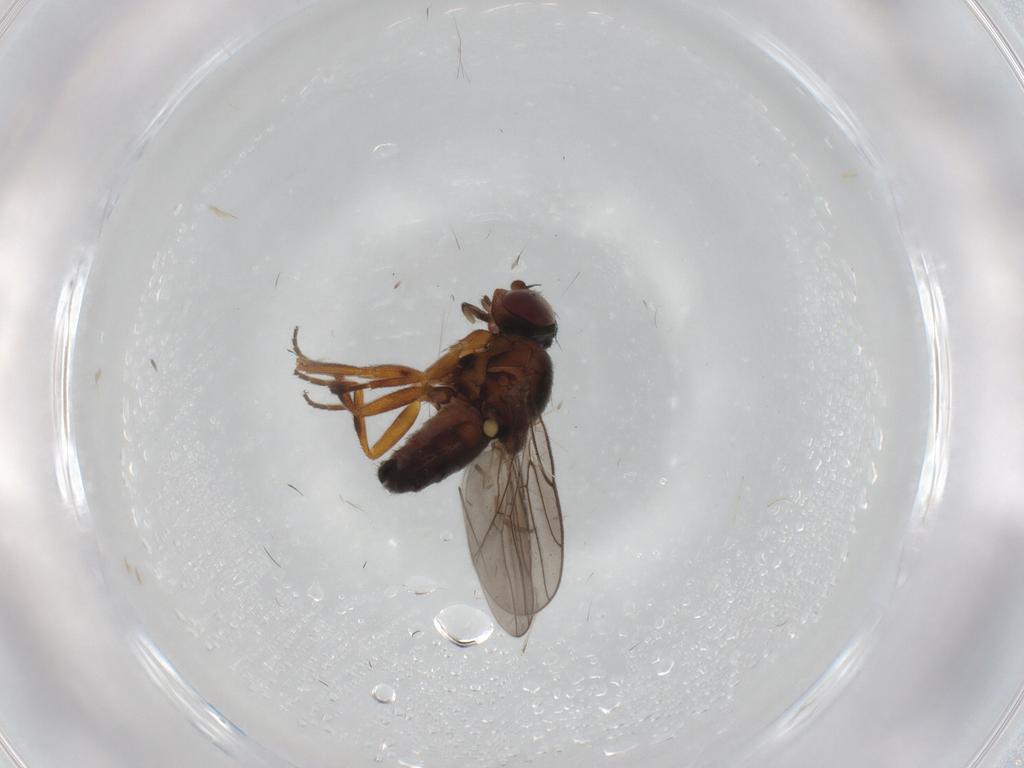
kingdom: Animalia
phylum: Arthropoda
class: Insecta
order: Diptera
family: Chloropidae
